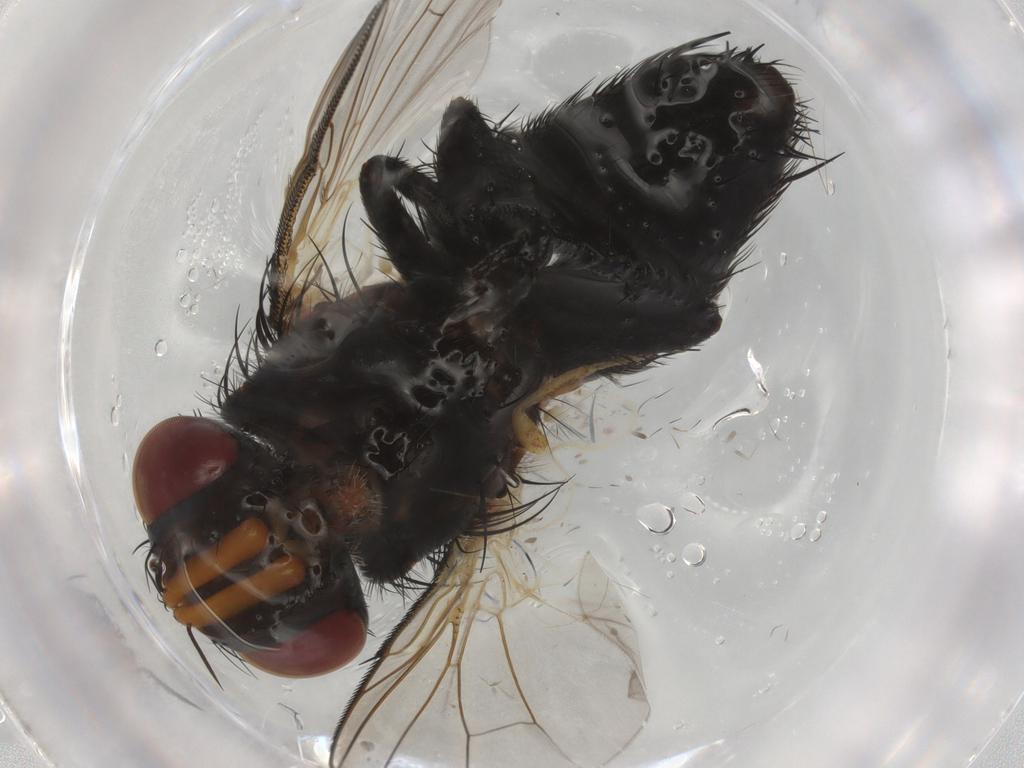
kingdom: Animalia
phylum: Arthropoda
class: Insecta
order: Diptera
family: Tachinidae
